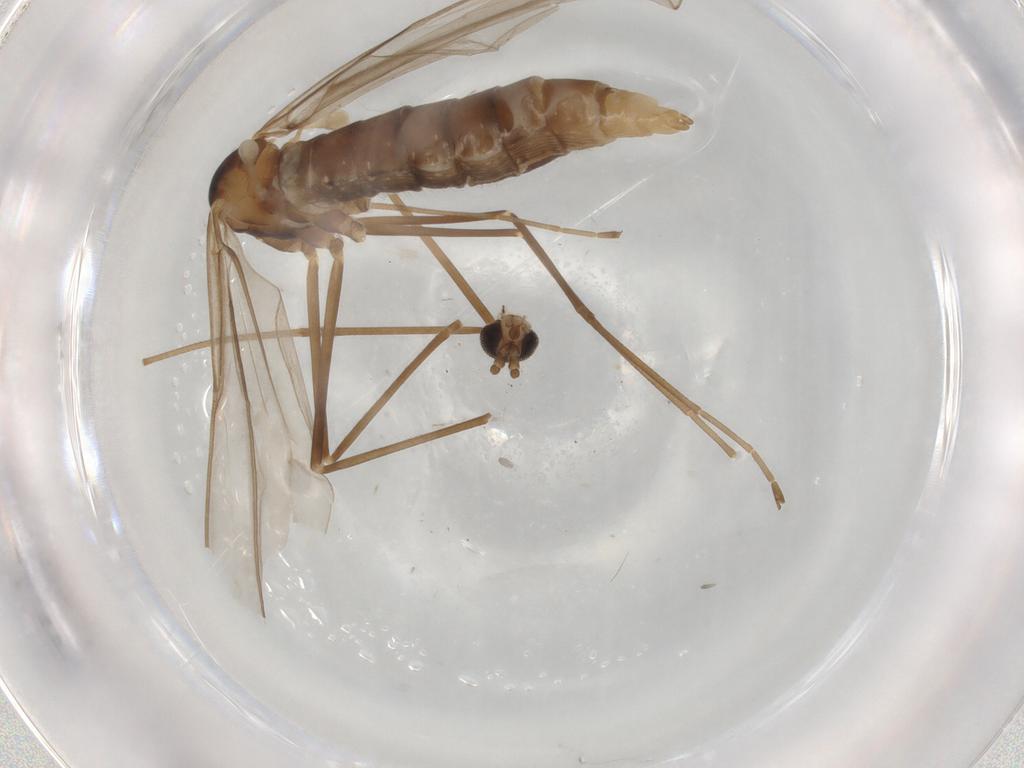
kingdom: Animalia
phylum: Arthropoda
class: Insecta
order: Diptera
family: Cecidomyiidae
